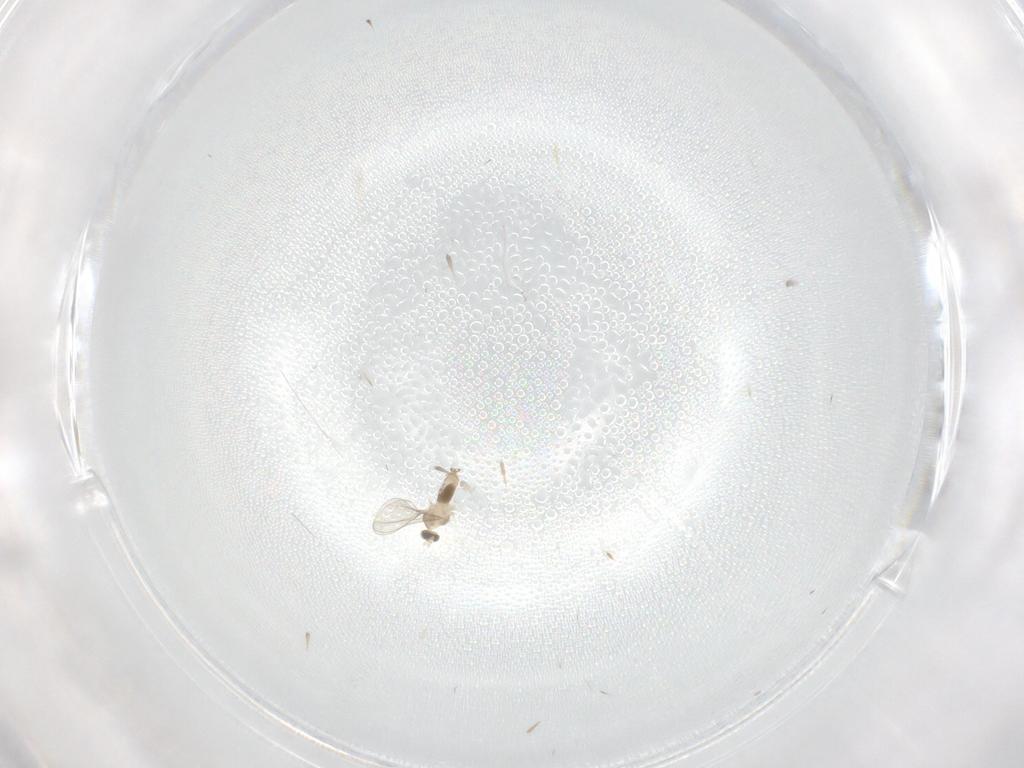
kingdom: Animalia
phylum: Arthropoda
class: Insecta
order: Diptera
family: Cecidomyiidae
